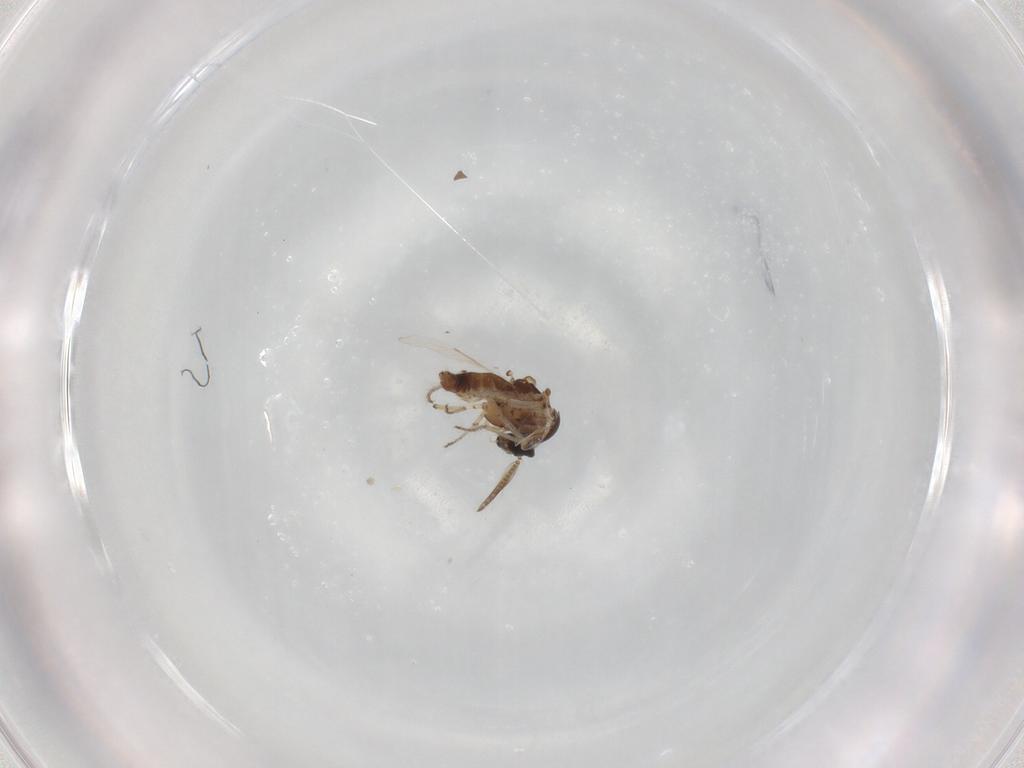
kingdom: Animalia
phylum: Arthropoda
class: Insecta
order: Diptera
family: Ceratopogonidae
